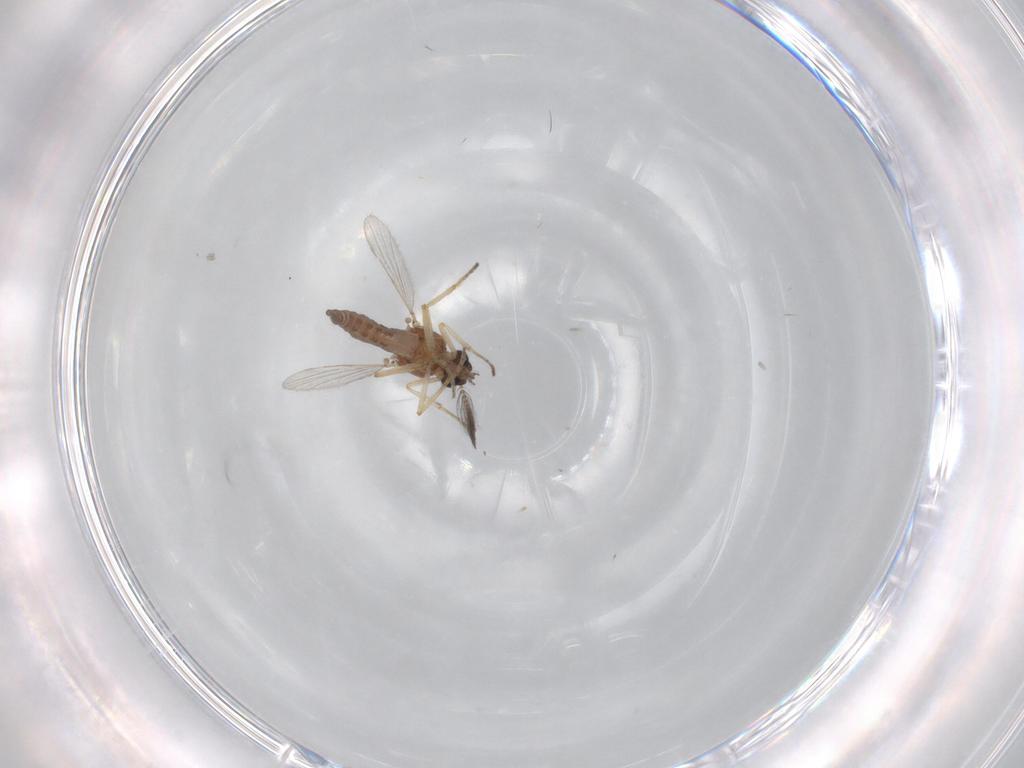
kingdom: Animalia
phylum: Arthropoda
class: Insecta
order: Diptera
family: Ceratopogonidae
